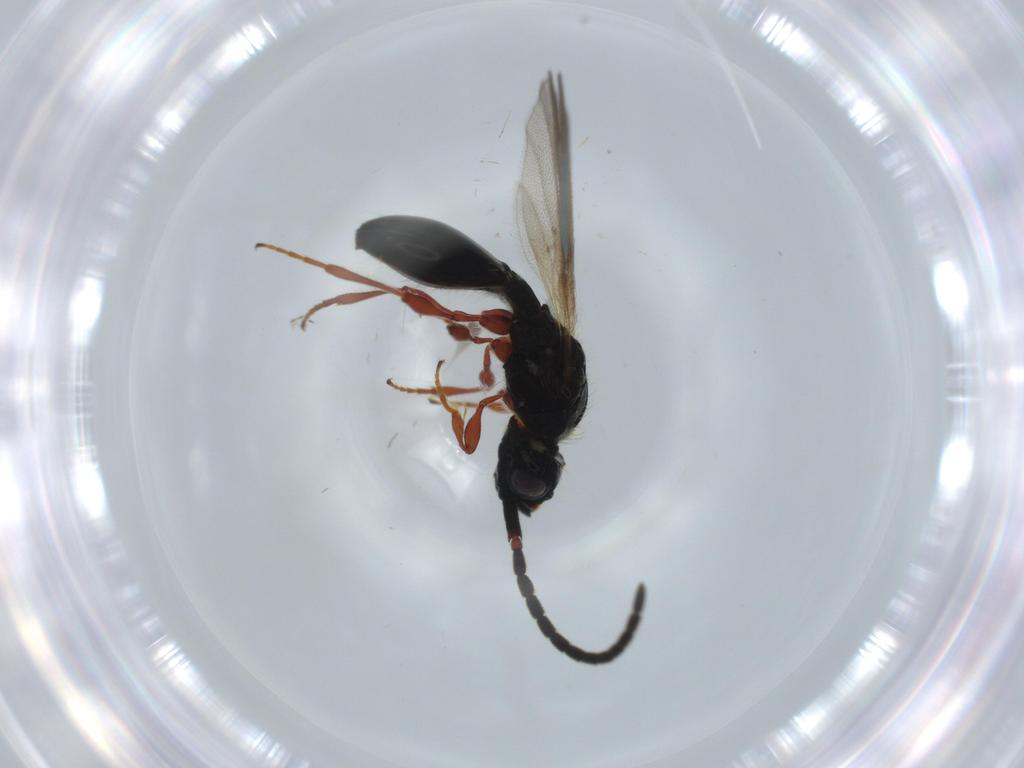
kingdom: Animalia
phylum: Arthropoda
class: Insecta
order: Hymenoptera
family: Diapriidae
